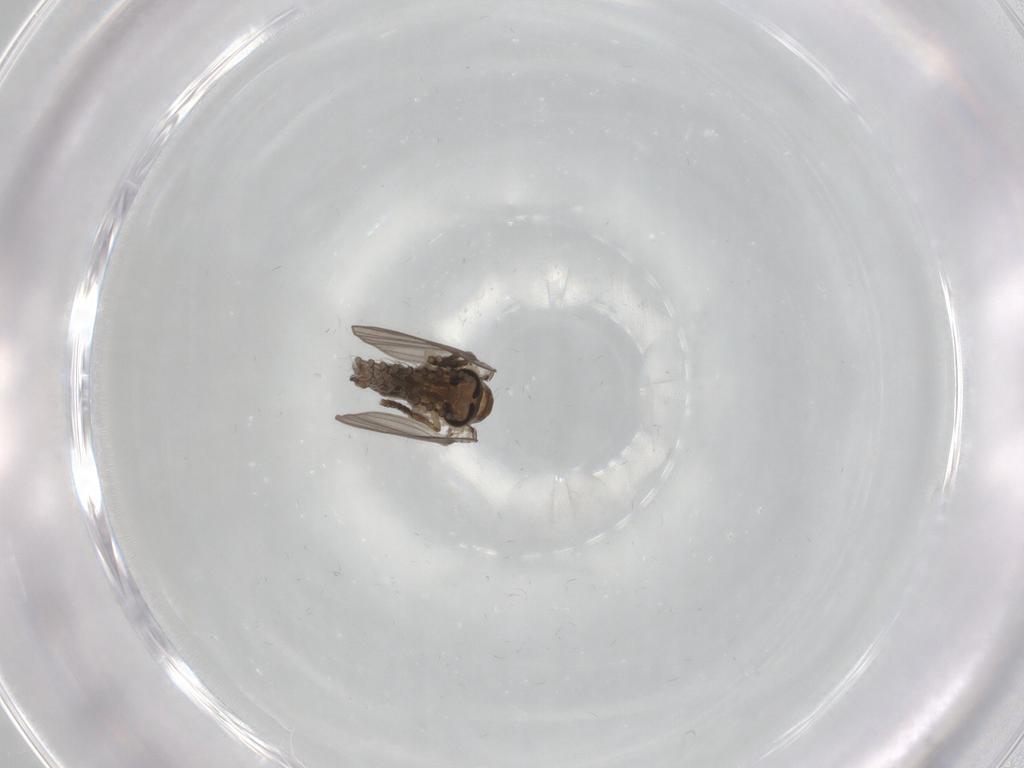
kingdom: Animalia
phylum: Arthropoda
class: Insecta
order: Diptera
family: Psychodidae
